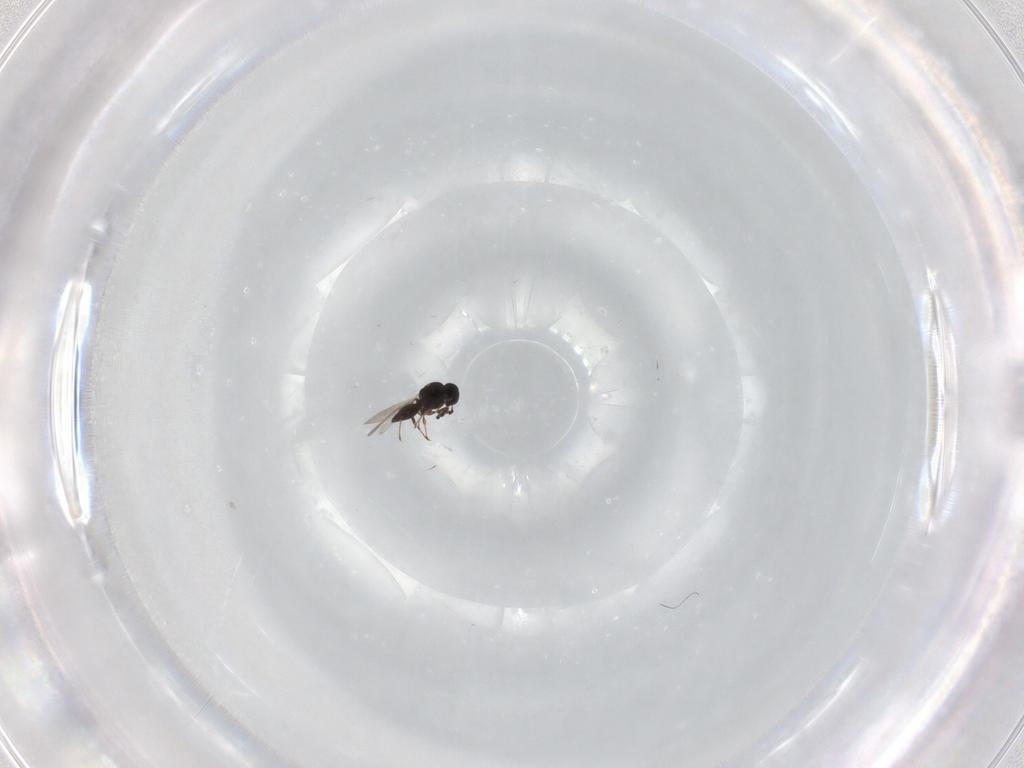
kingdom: Animalia
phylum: Arthropoda
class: Insecta
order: Hymenoptera
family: Platygastridae
